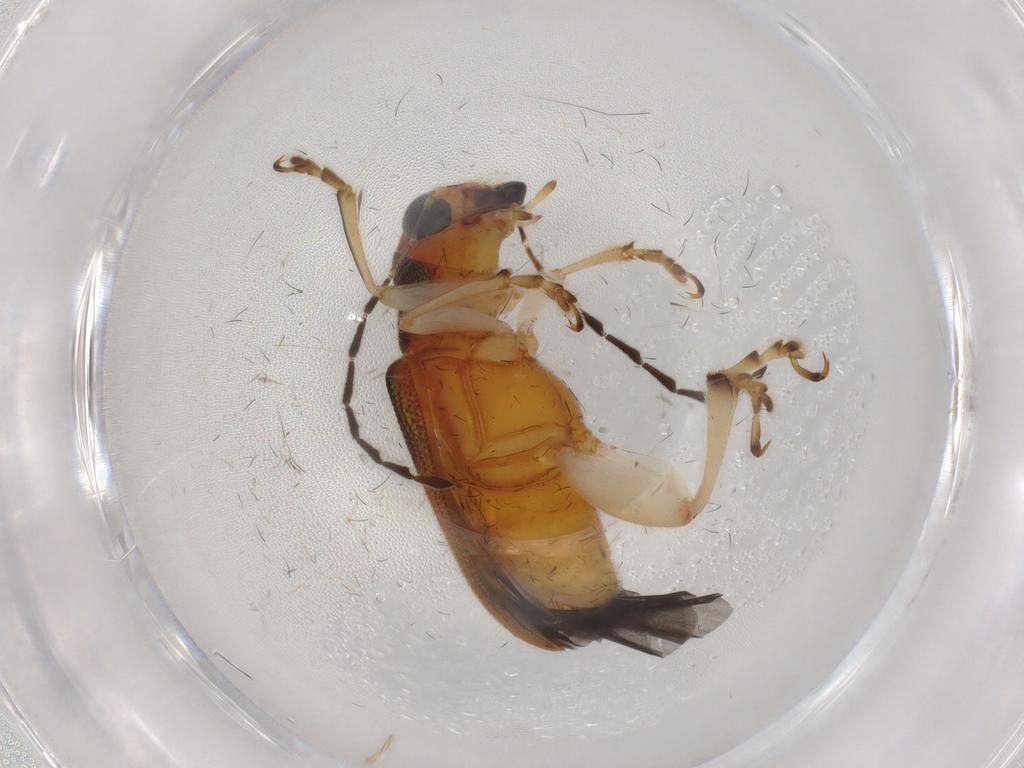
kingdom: Animalia
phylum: Arthropoda
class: Insecta
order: Coleoptera
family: Chrysomelidae
